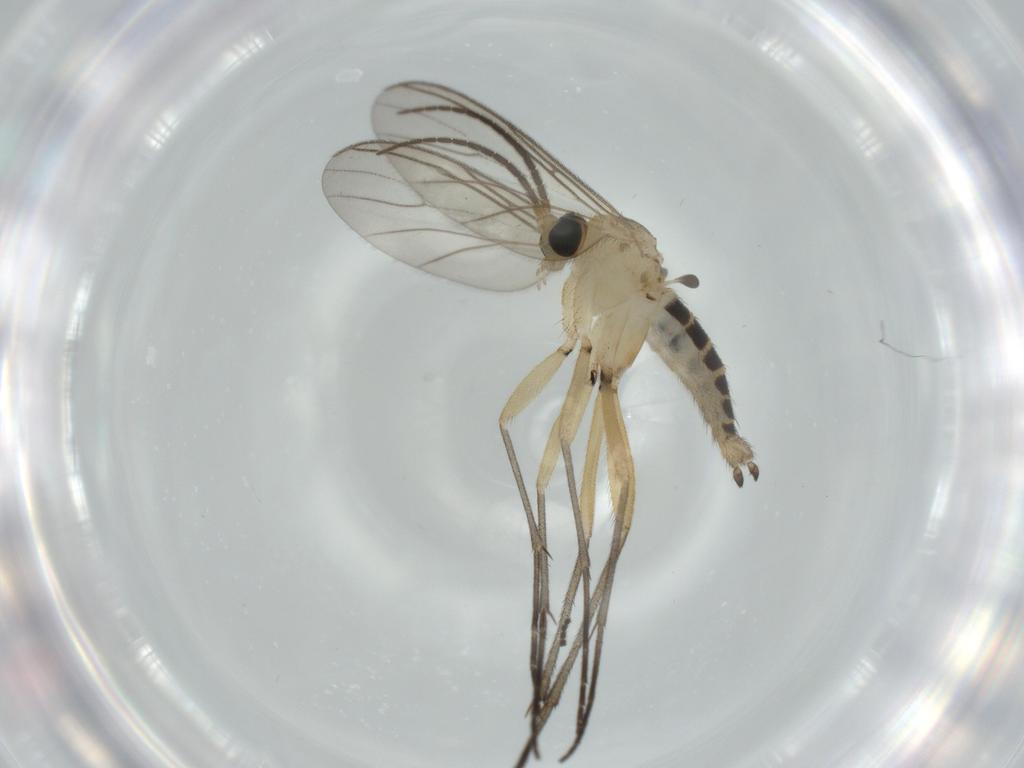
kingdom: Animalia
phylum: Arthropoda
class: Insecta
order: Diptera
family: Sciaridae
